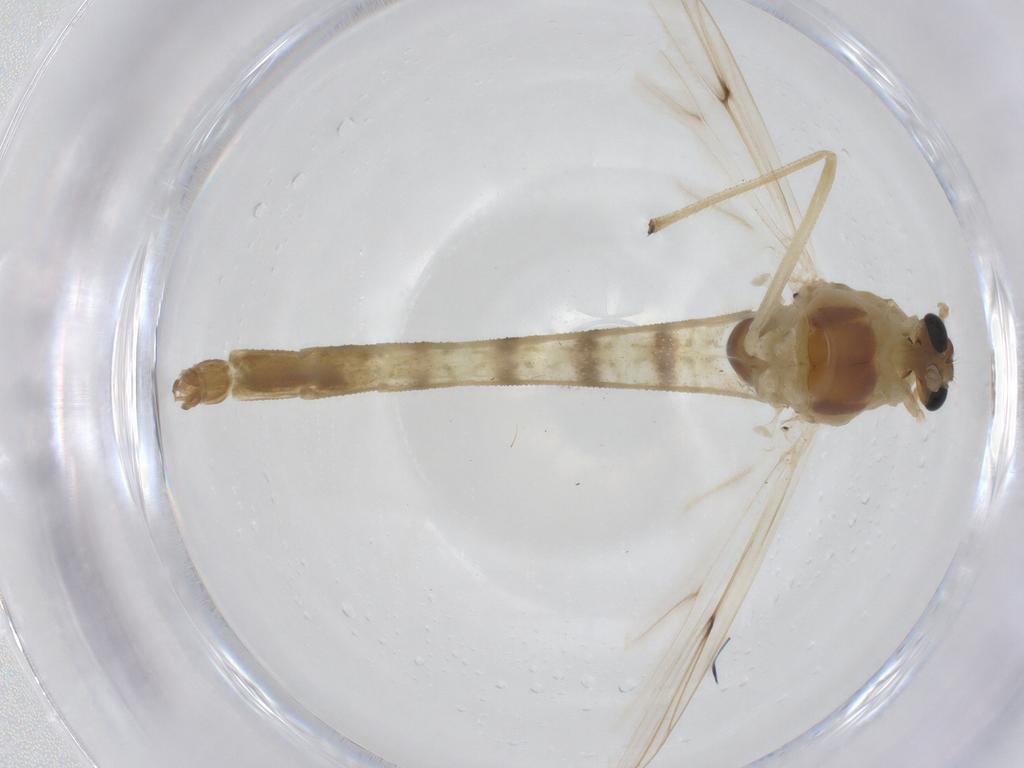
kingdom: Animalia
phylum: Arthropoda
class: Insecta
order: Diptera
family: Chironomidae
